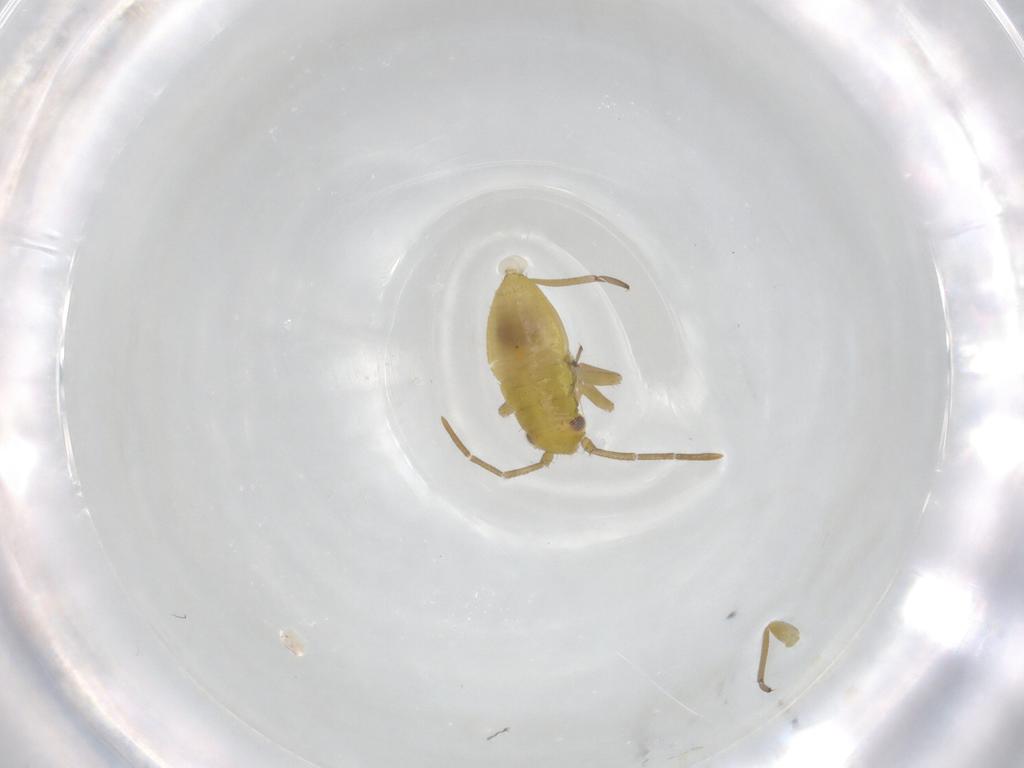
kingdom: Animalia
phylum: Arthropoda
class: Insecta
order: Hemiptera
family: Miridae
